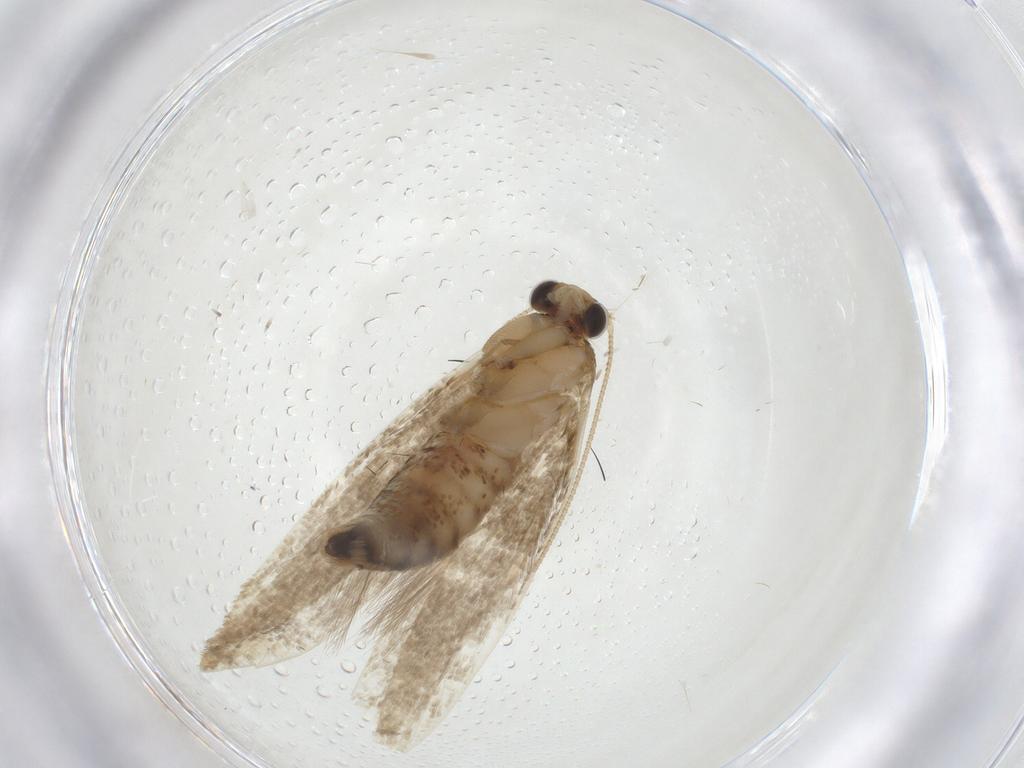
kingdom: Animalia
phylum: Arthropoda
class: Insecta
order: Lepidoptera
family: Tineidae
